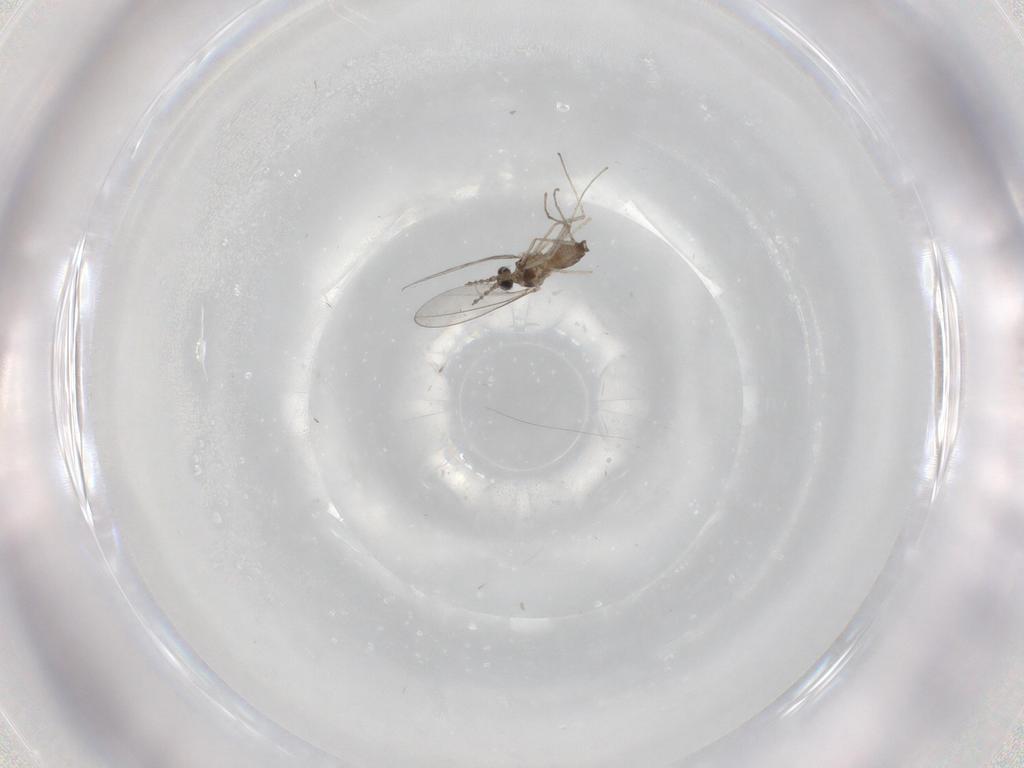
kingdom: Animalia
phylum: Arthropoda
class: Insecta
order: Diptera
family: Cecidomyiidae
